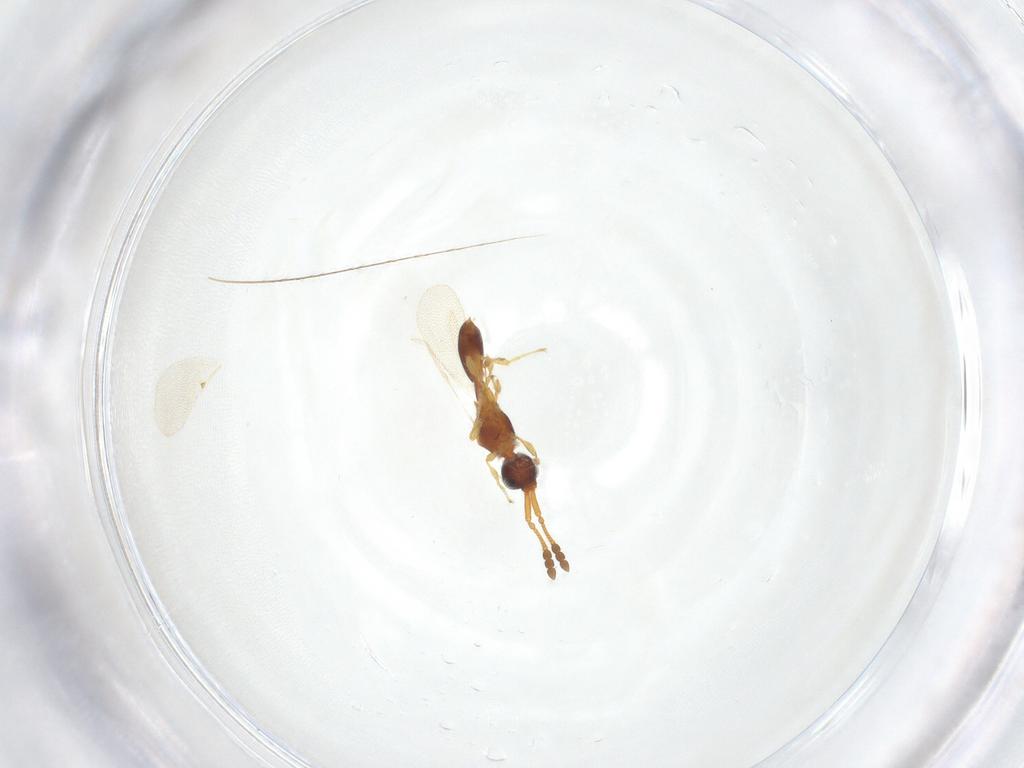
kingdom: Animalia
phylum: Arthropoda
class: Insecta
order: Hymenoptera
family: Diapriidae
